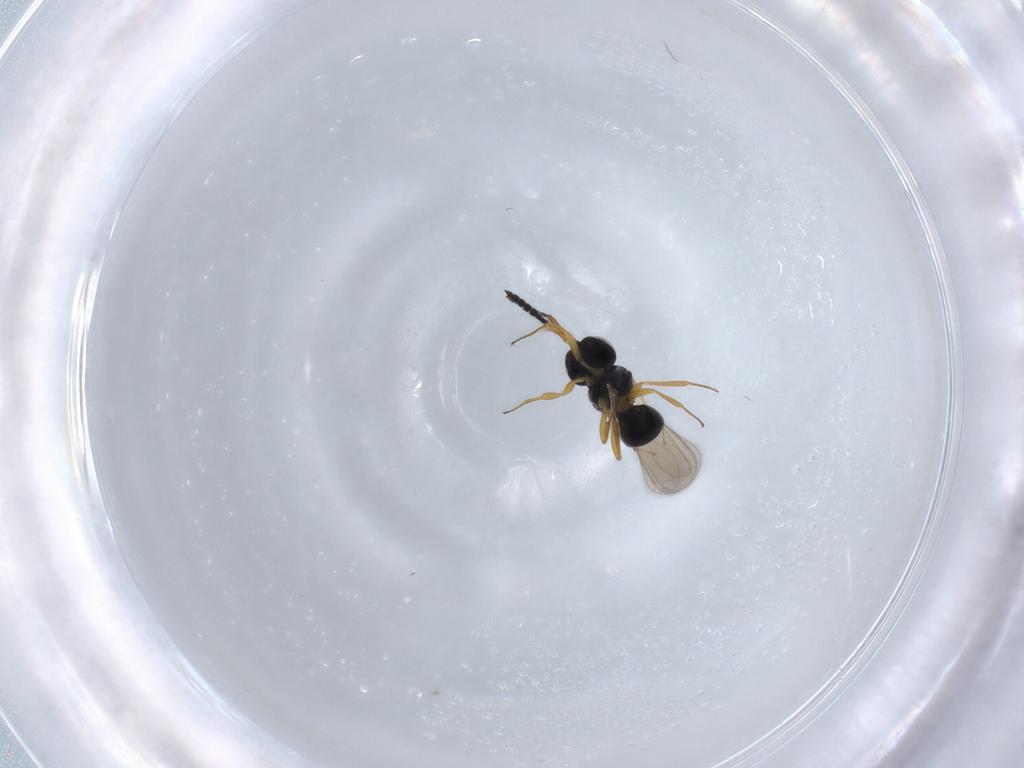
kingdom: Animalia
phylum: Arthropoda
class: Insecta
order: Hymenoptera
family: Scelionidae
